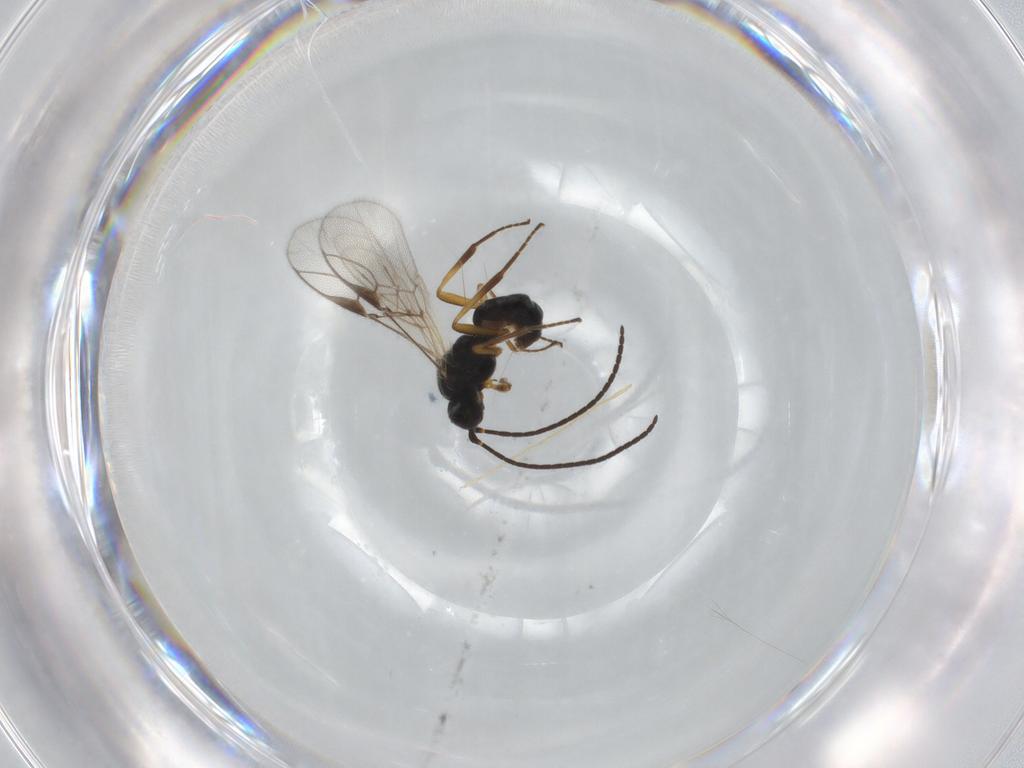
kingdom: Animalia
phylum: Arthropoda
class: Insecta
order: Hymenoptera
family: Braconidae
